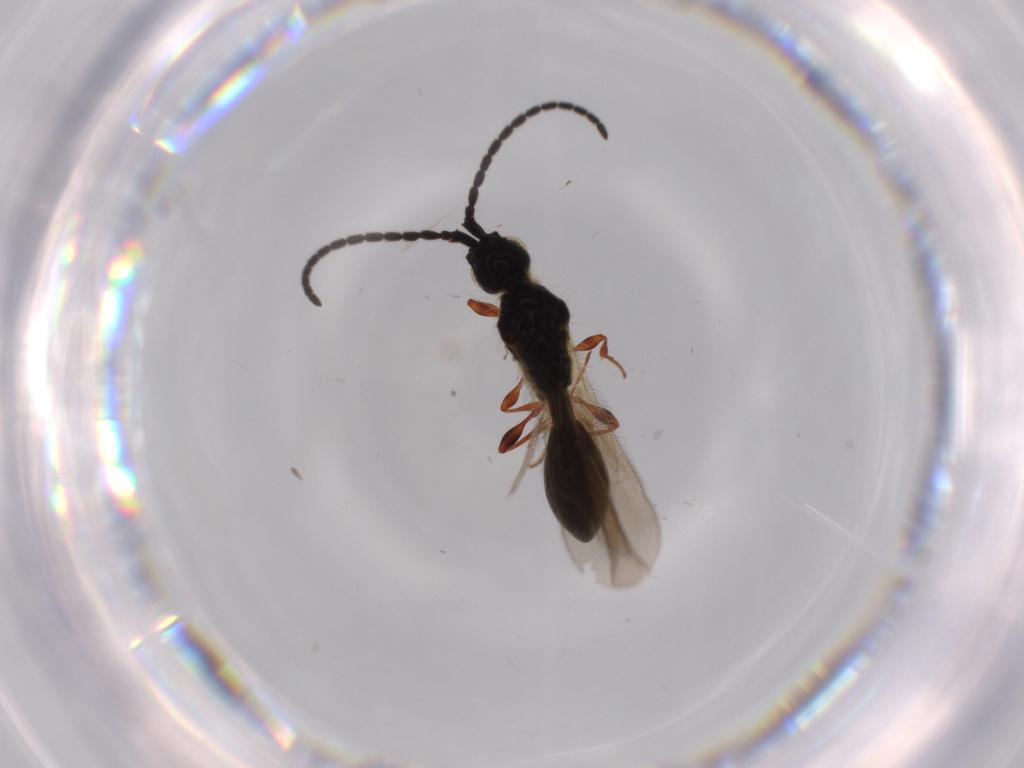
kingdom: Animalia
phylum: Arthropoda
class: Insecta
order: Hymenoptera
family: Diapriidae
